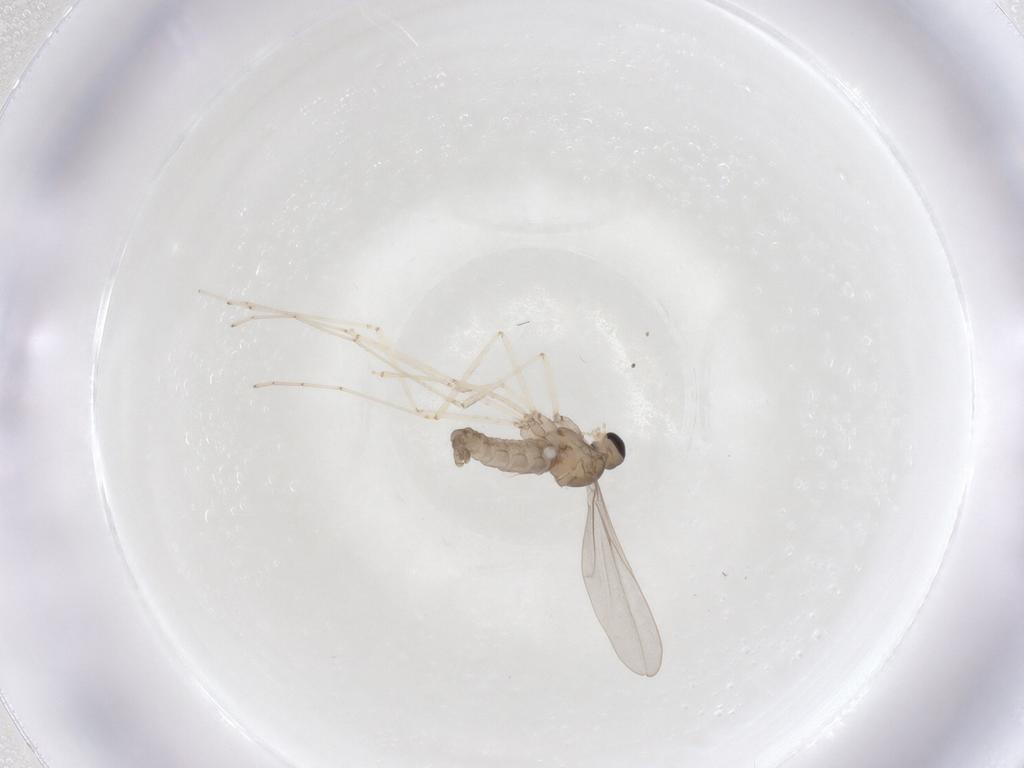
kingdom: Animalia
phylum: Arthropoda
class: Insecta
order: Diptera
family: Cecidomyiidae
